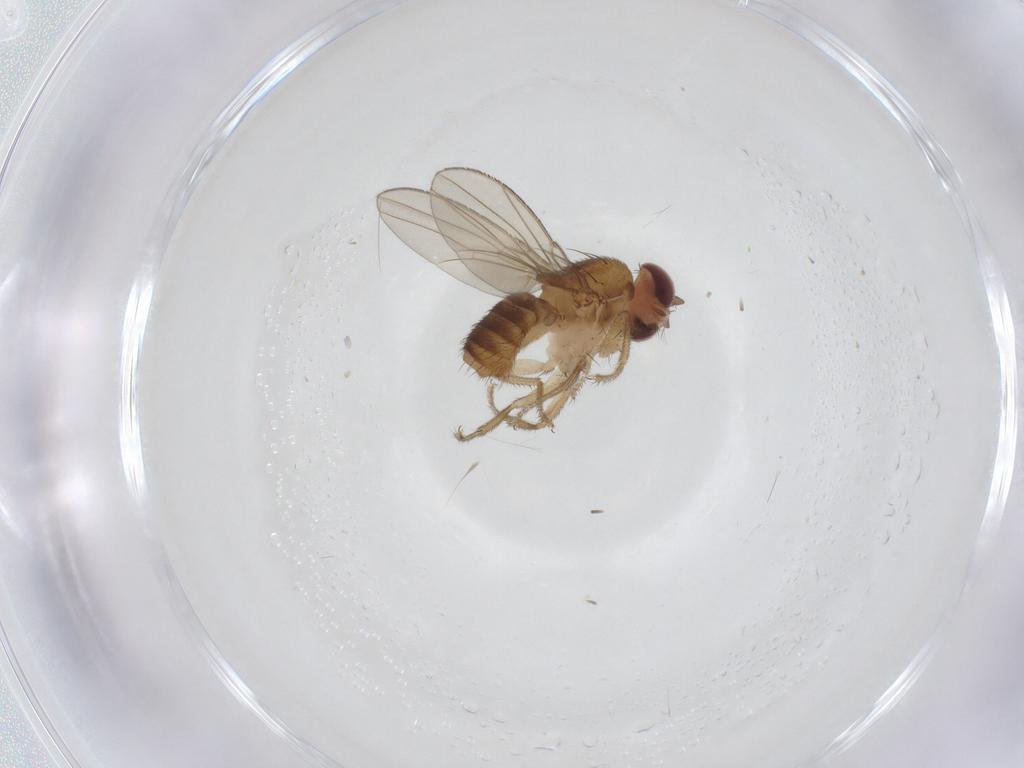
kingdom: Animalia
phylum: Arthropoda
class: Insecta
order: Diptera
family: Drosophilidae
